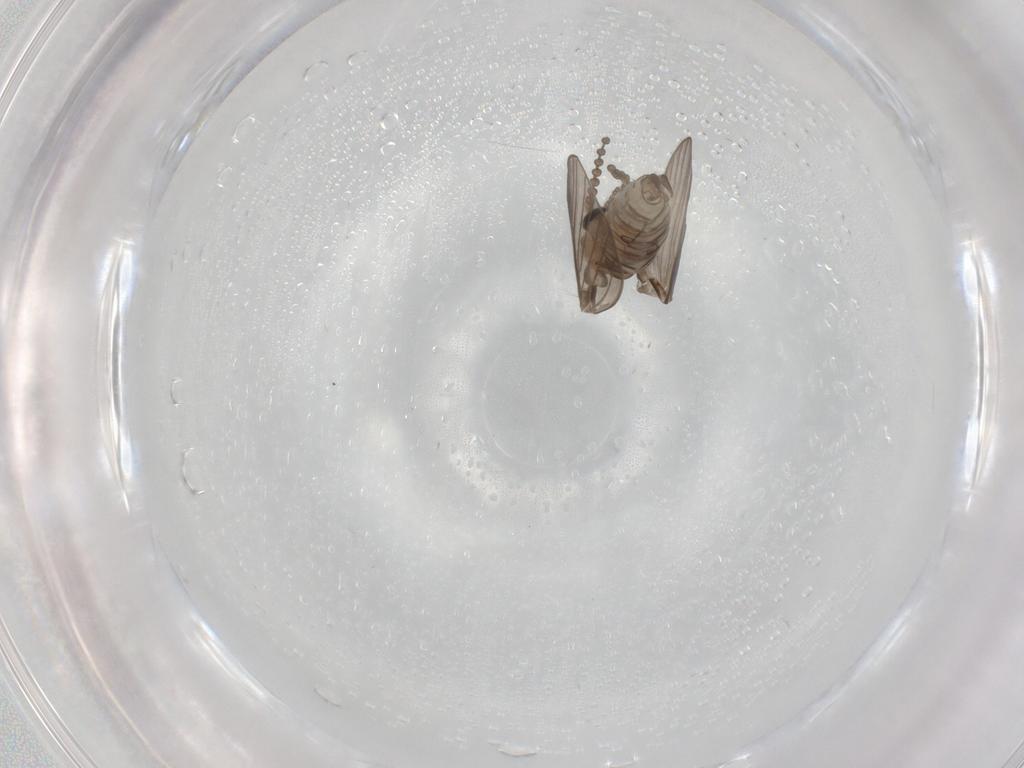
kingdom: Animalia
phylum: Arthropoda
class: Insecta
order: Diptera
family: Psychodidae
